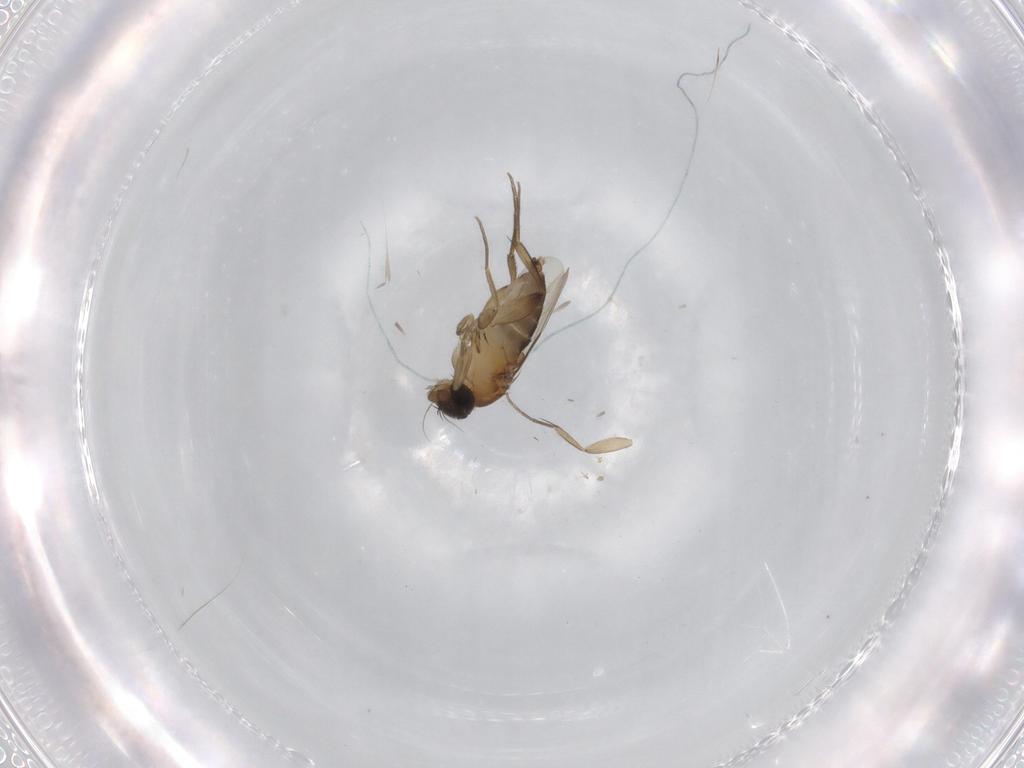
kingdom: Animalia
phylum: Arthropoda
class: Insecta
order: Diptera
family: Phoridae
